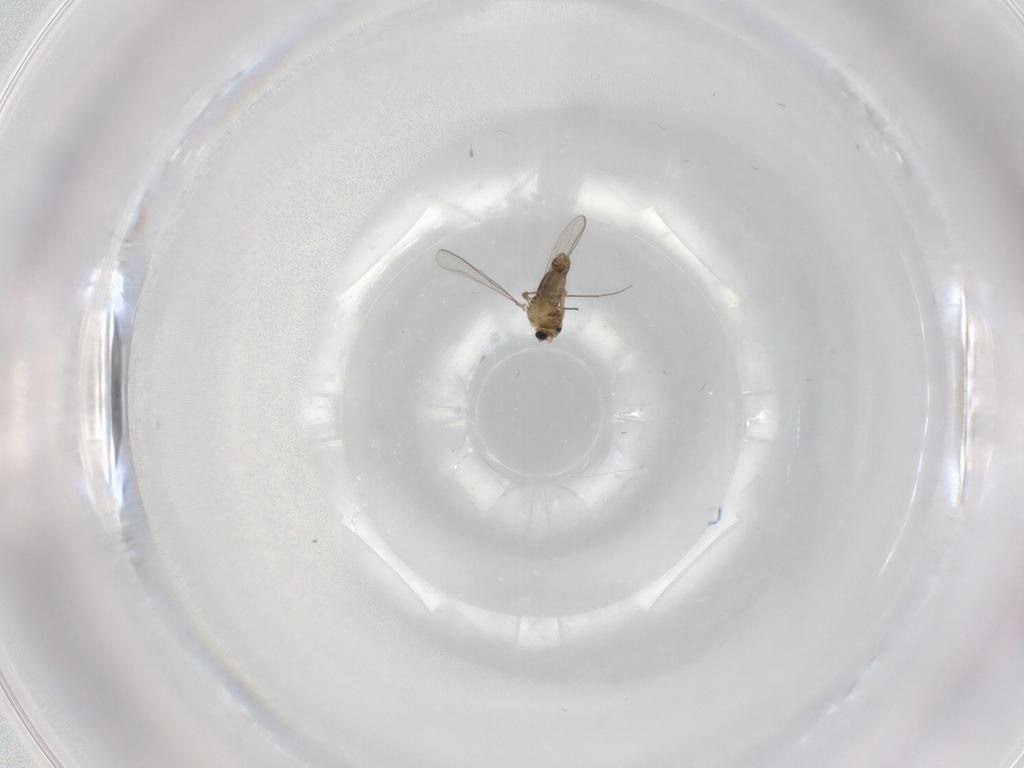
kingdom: Animalia
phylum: Arthropoda
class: Insecta
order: Diptera
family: Chironomidae
